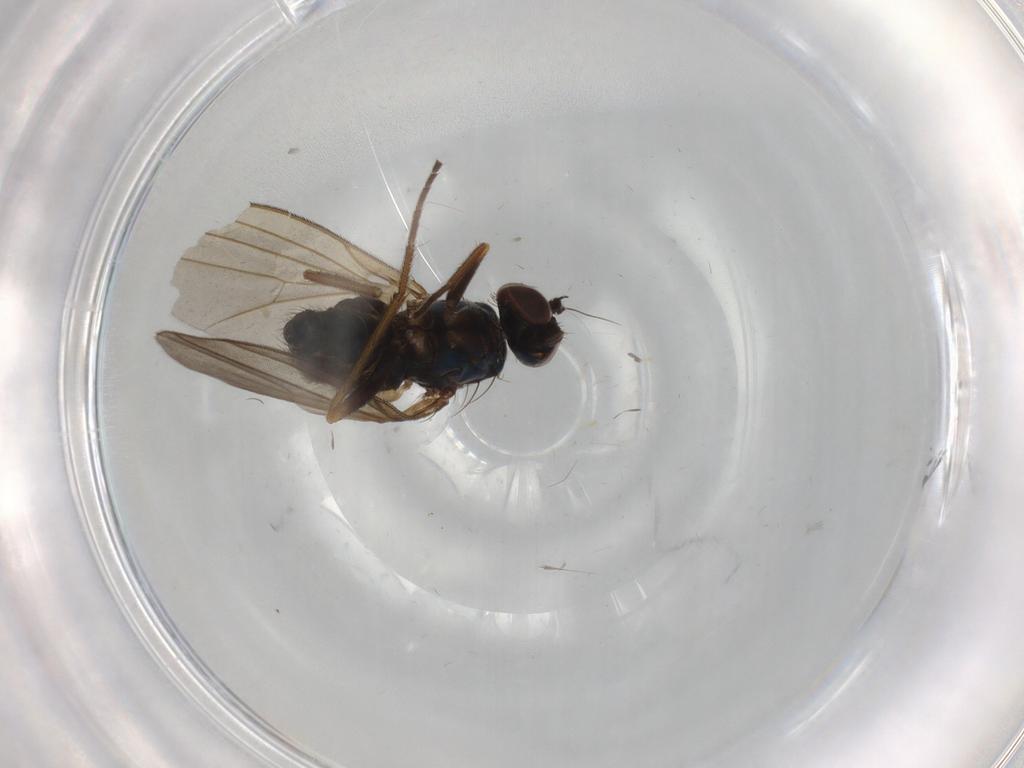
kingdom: Animalia
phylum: Arthropoda
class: Insecta
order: Diptera
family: Dolichopodidae
